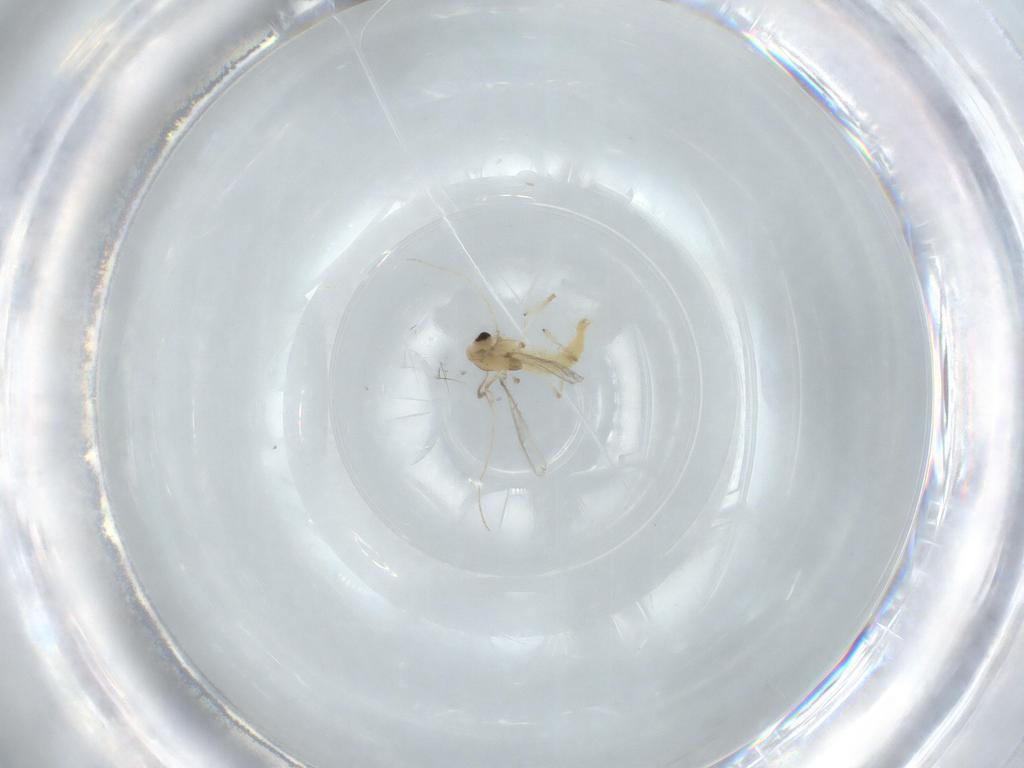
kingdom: Animalia
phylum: Arthropoda
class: Insecta
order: Diptera
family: Chironomidae
